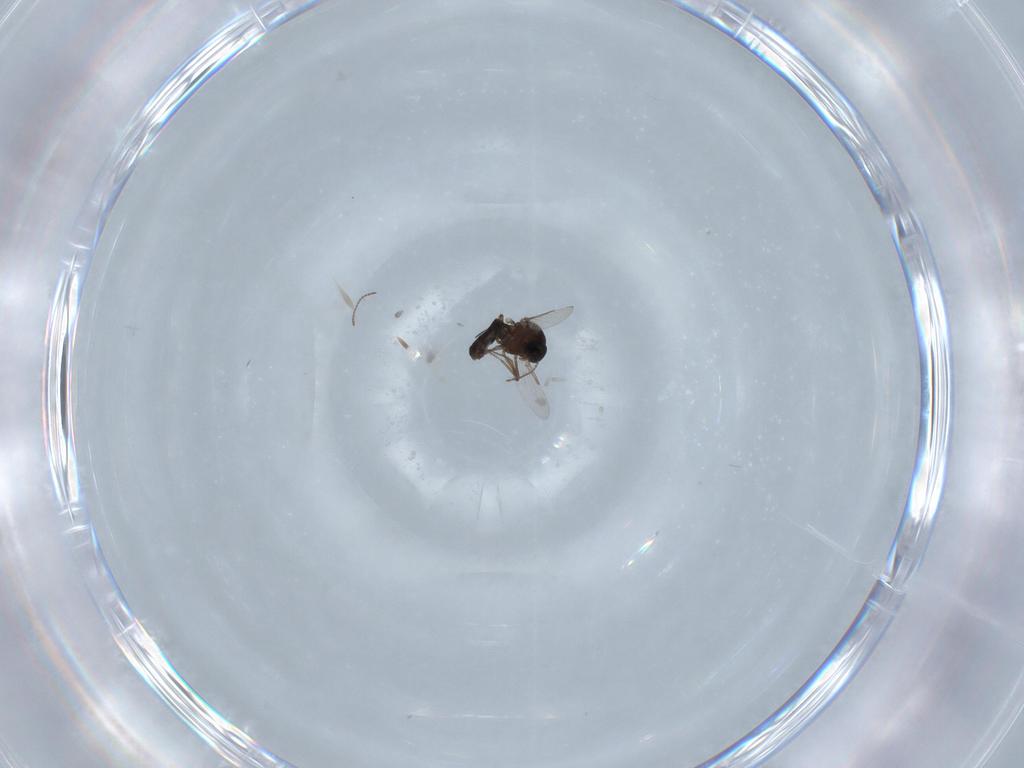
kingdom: Animalia
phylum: Arthropoda
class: Insecta
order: Diptera
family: Ceratopogonidae
